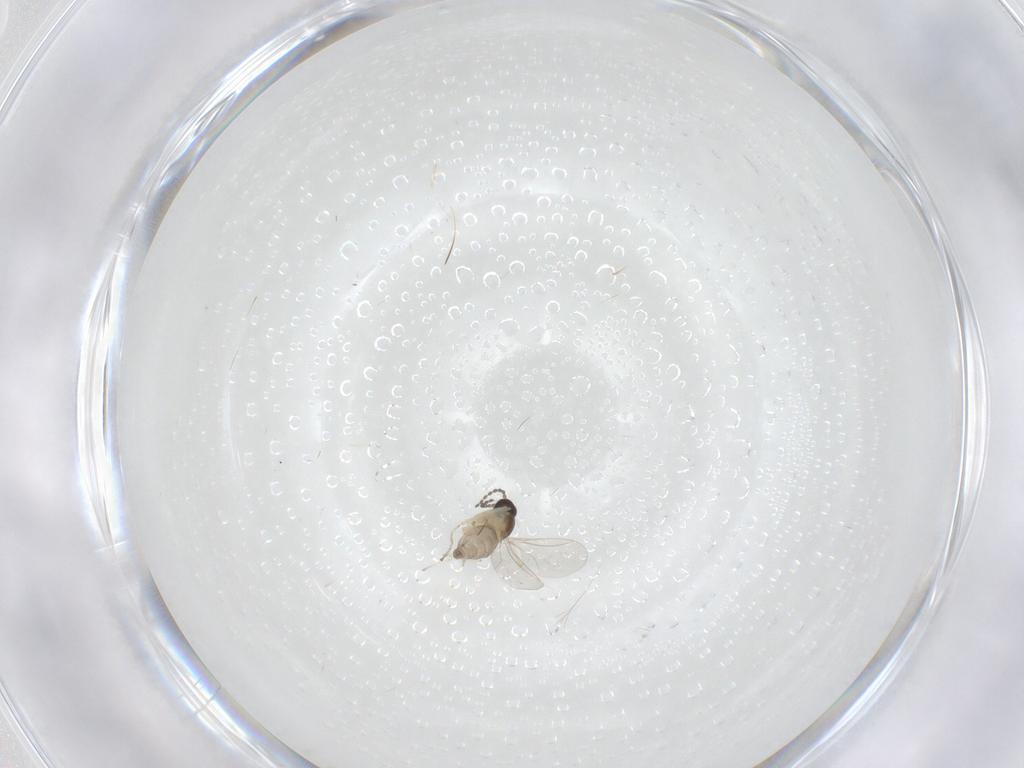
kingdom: Animalia
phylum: Arthropoda
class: Insecta
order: Diptera
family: Cecidomyiidae
